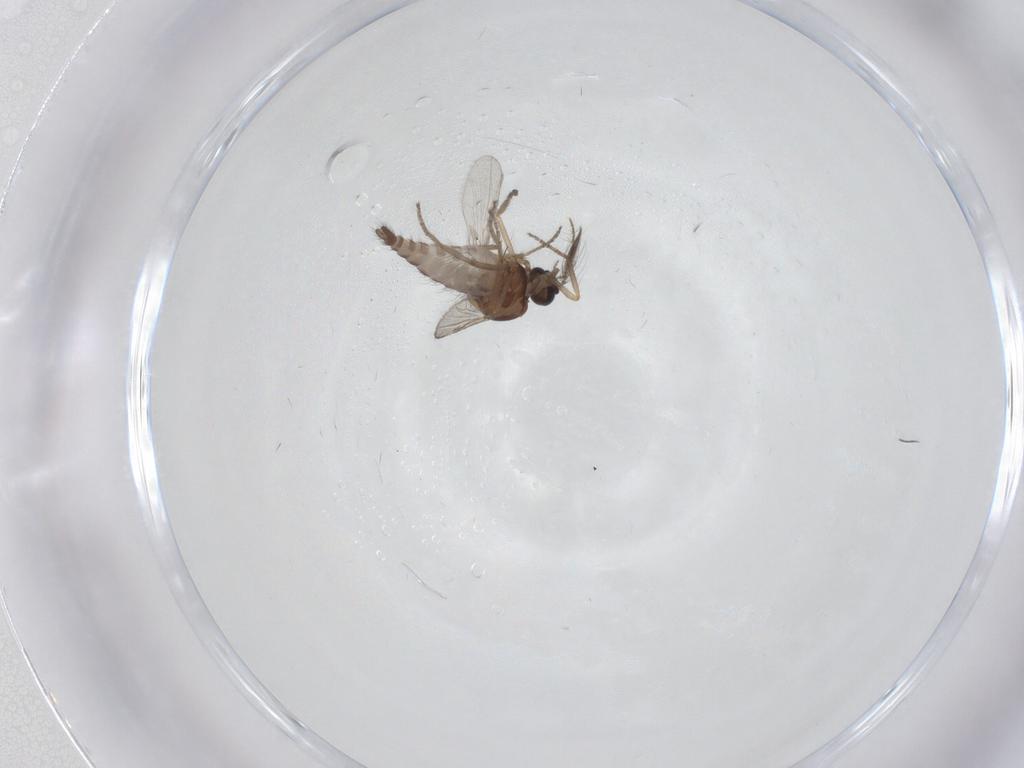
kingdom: Animalia
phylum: Arthropoda
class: Insecta
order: Diptera
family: Ceratopogonidae
